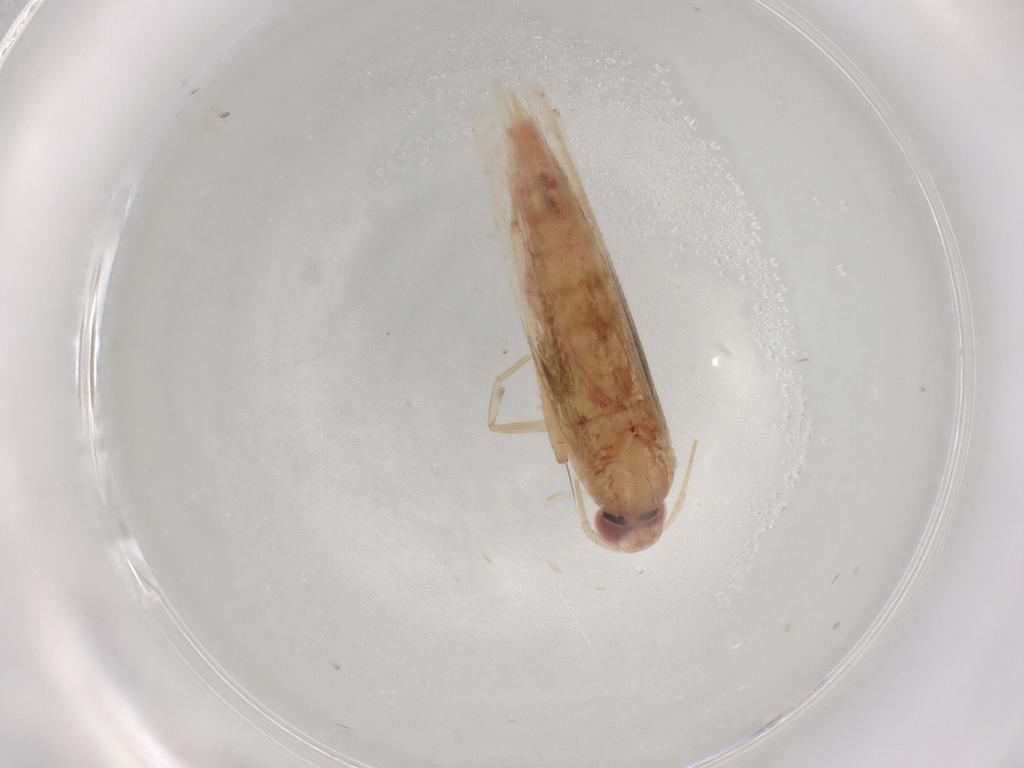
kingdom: Animalia
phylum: Arthropoda
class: Insecta
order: Lepidoptera
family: Cosmopterigidae
